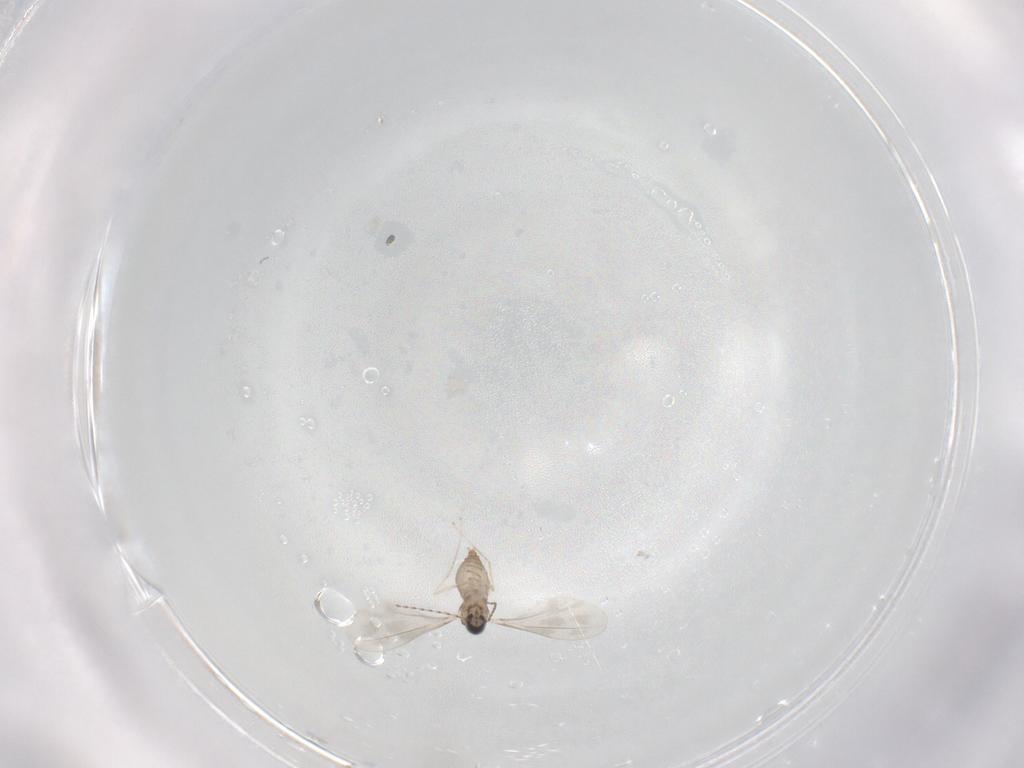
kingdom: Animalia
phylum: Arthropoda
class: Insecta
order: Diptera
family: Cecidomyiidae
